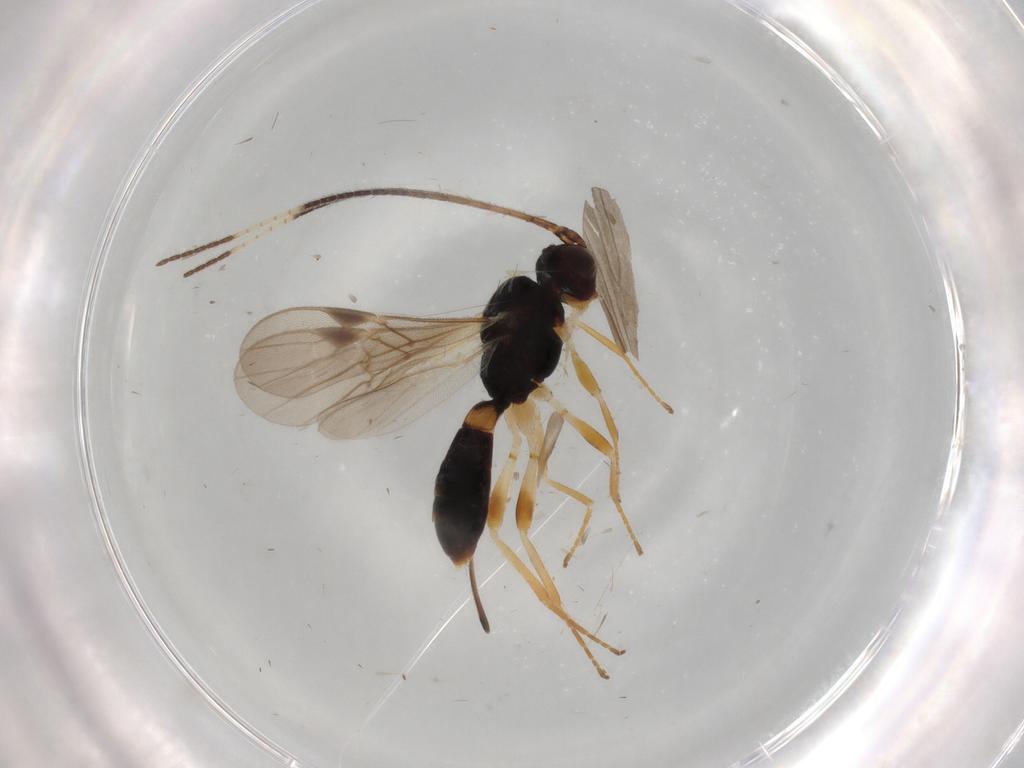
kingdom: Animalia
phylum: Arthropoda
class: Insecta
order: Hymenoptera
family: Braconidae
